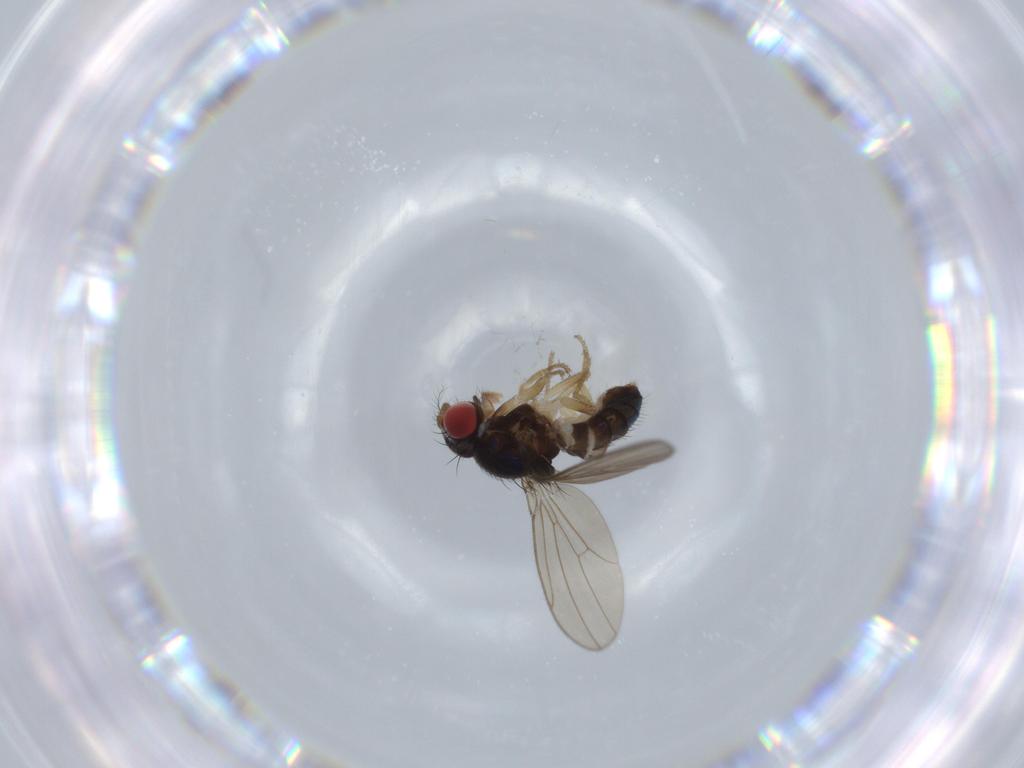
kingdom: Animalia
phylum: Arthropoda
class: Insecta
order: Diptera
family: Drosophilidae
